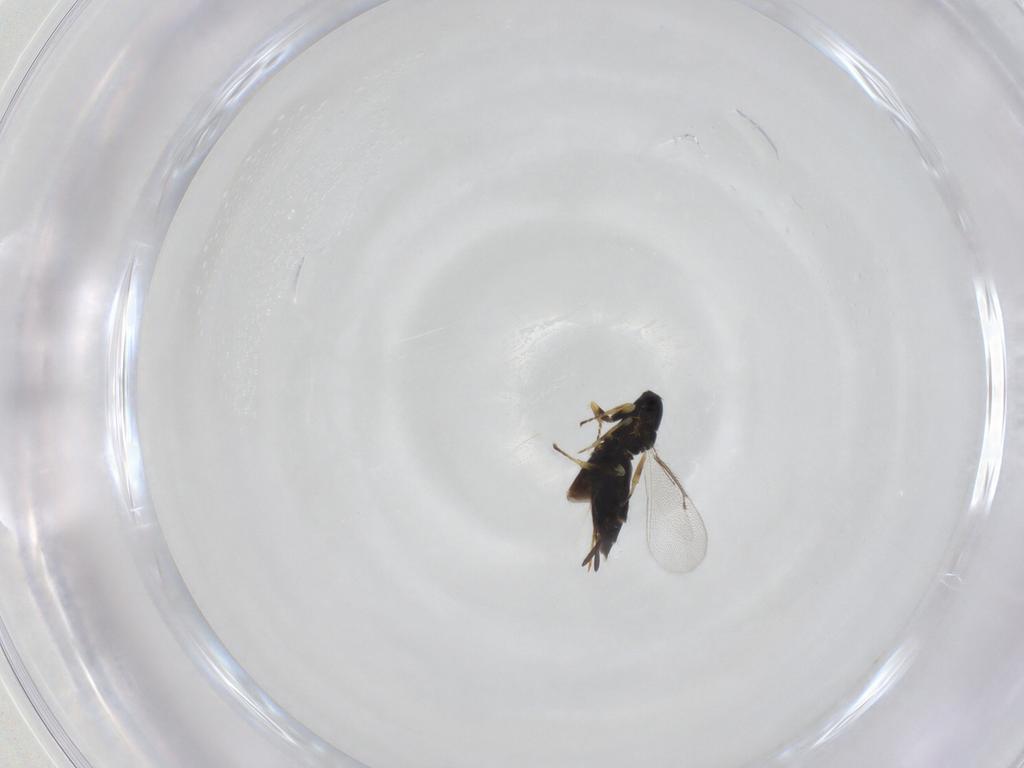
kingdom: Animalia
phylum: Arthropoda
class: Insecta
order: Hymenoptera
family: Eulophidae
